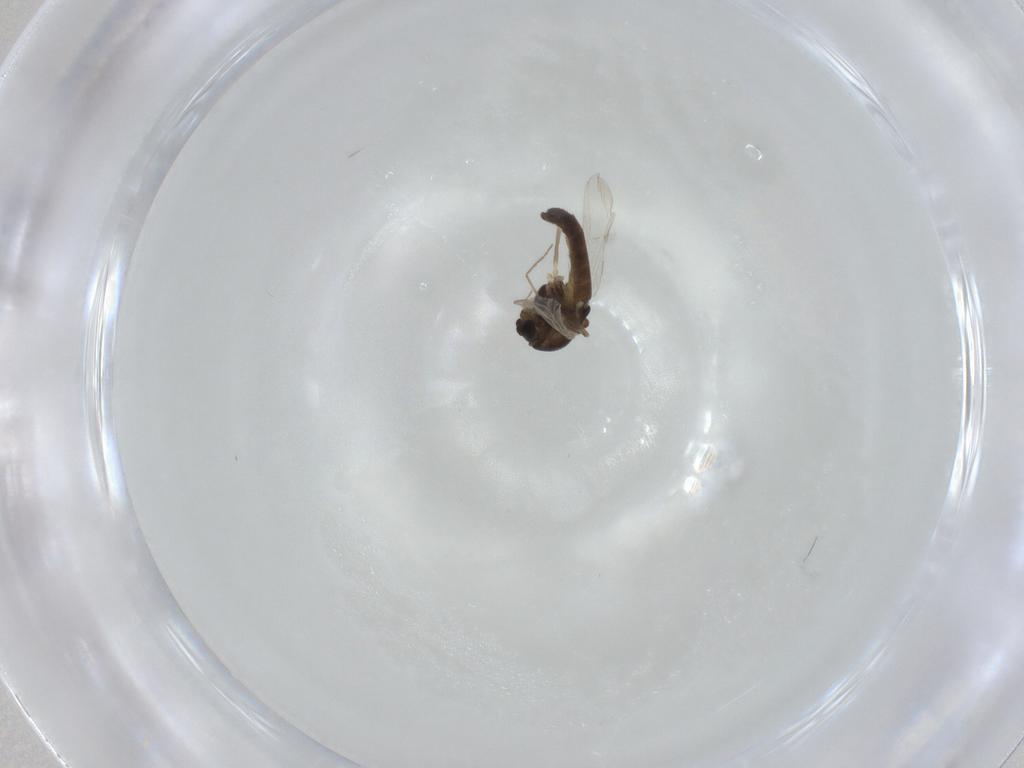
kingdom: Animalia
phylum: Arthropoda
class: Insecta
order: Diptera
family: Chironomidae
